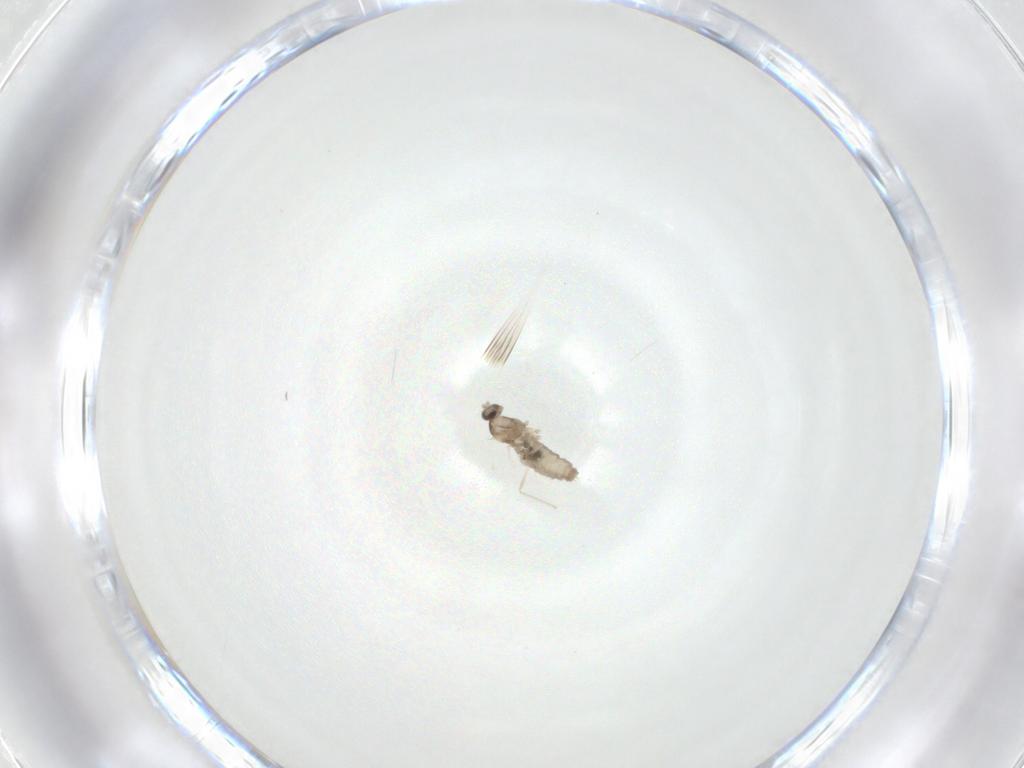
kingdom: Animalia
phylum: Arthropoda
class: Insecta
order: Diptera
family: Cecidomyiidae
